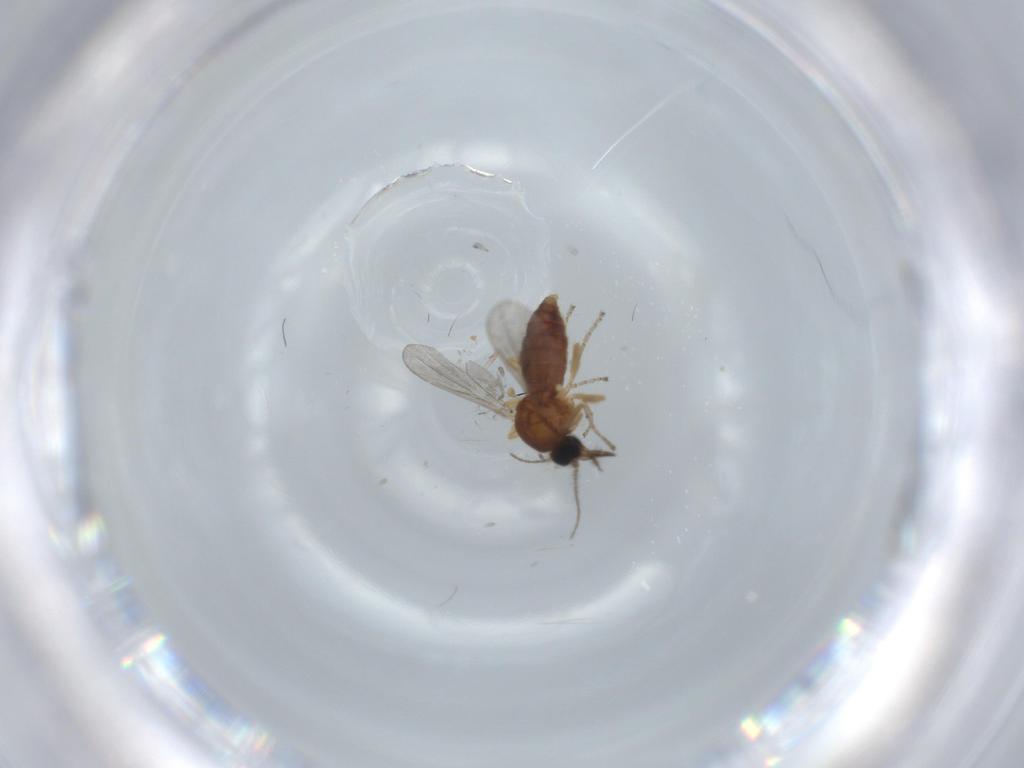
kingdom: Animalia
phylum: Arthropoda
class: Insecta
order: Diptera
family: Ceratopogonidae
